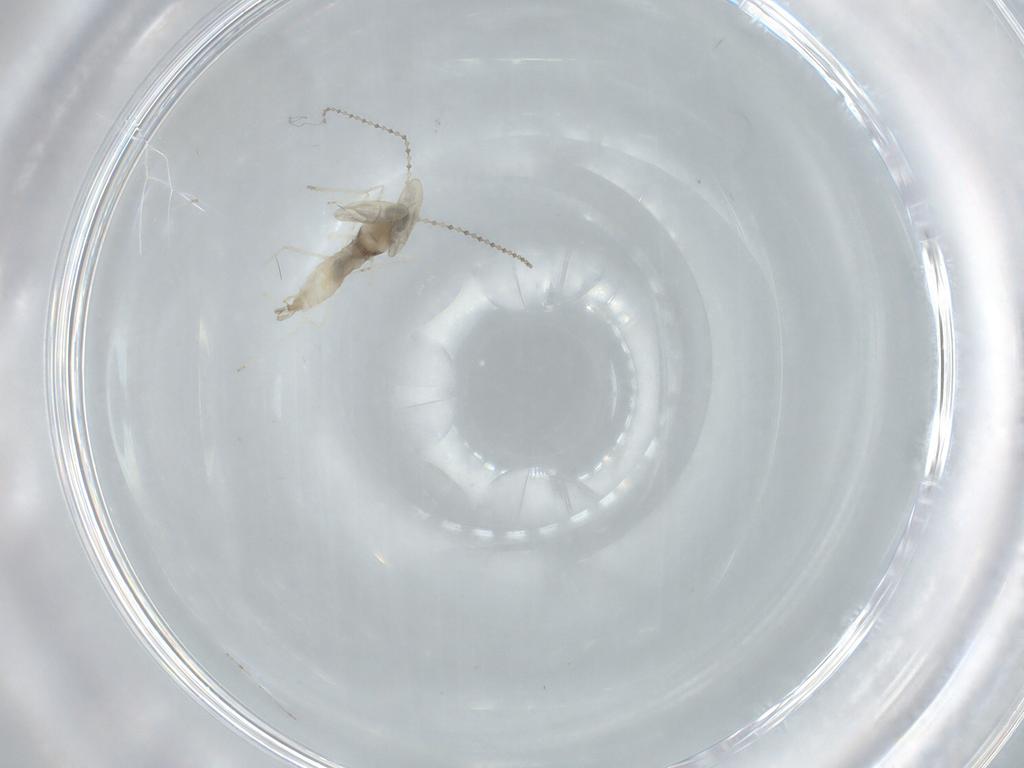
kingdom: Animalia
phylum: Arthropoda
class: Insecta
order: Diptera
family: Cecidomyiidae
